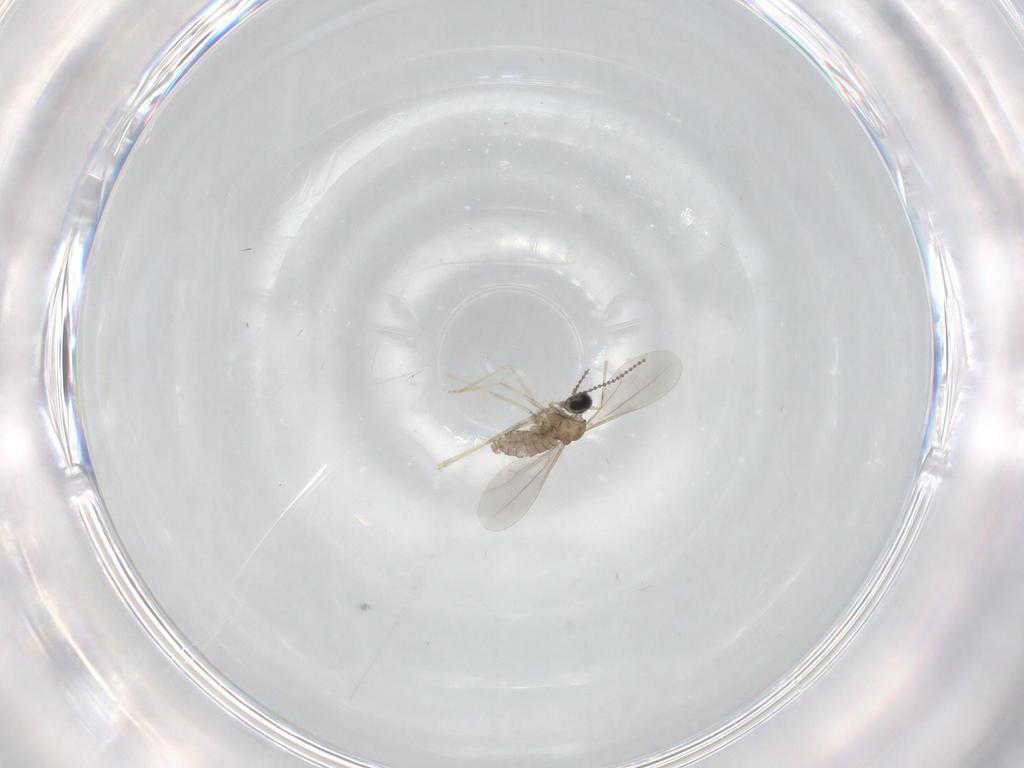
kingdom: Animalia
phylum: Arthropoda
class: Insecta
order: Diptera
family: Cecidomyiidae
